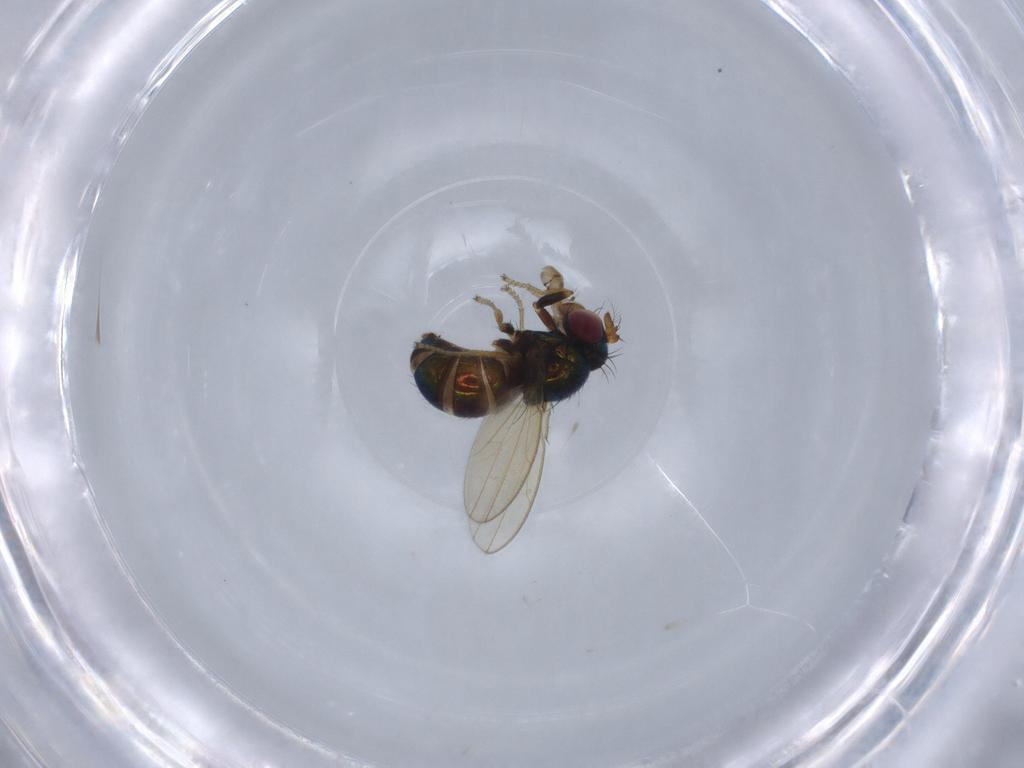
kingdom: Animalia
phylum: Arthropoda
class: Insecta
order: Diptera
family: Ephydridae
